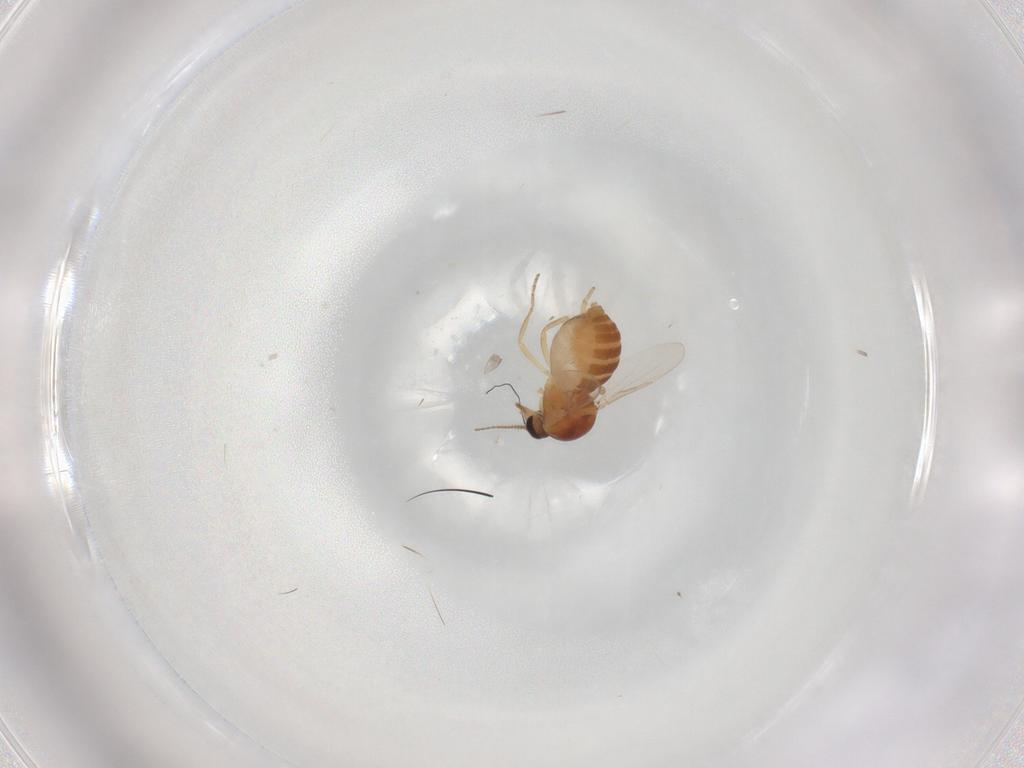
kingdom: Animalia
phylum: Arthropoda
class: Insecta
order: Diptera
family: Ceratopogonidae
